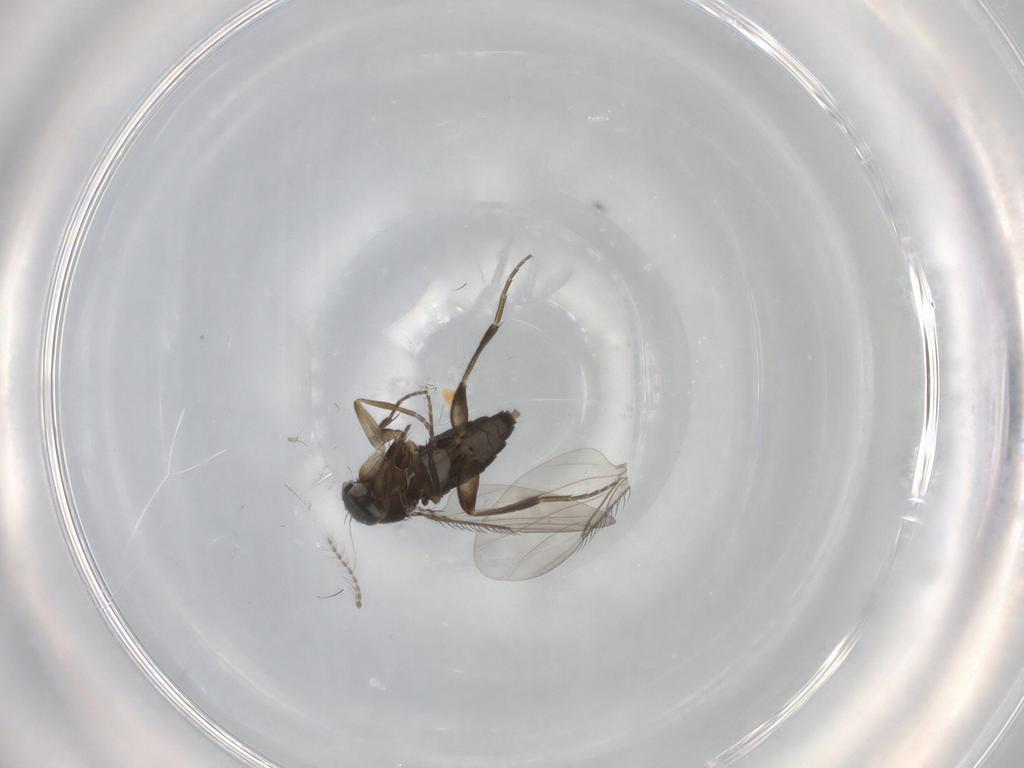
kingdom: Animalia
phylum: Arthropoda
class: Insecta
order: Diptera
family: Phoridae
